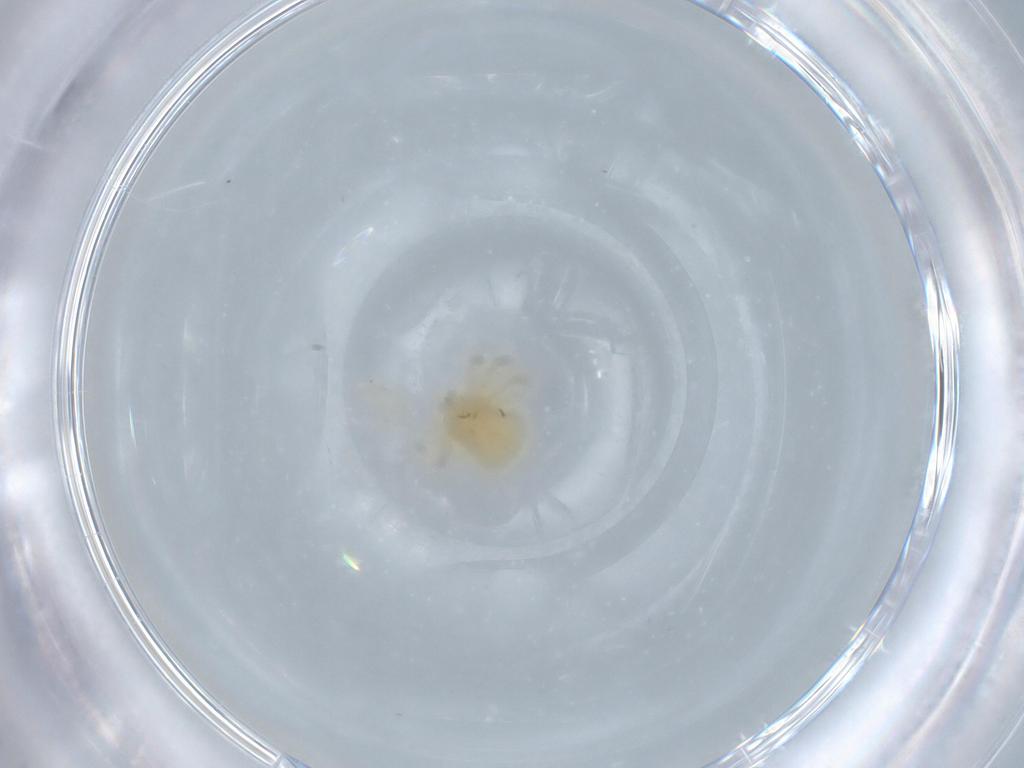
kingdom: Animalia
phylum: Arthropoda
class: Arachnida
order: Trombidiformes
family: Anystidae
